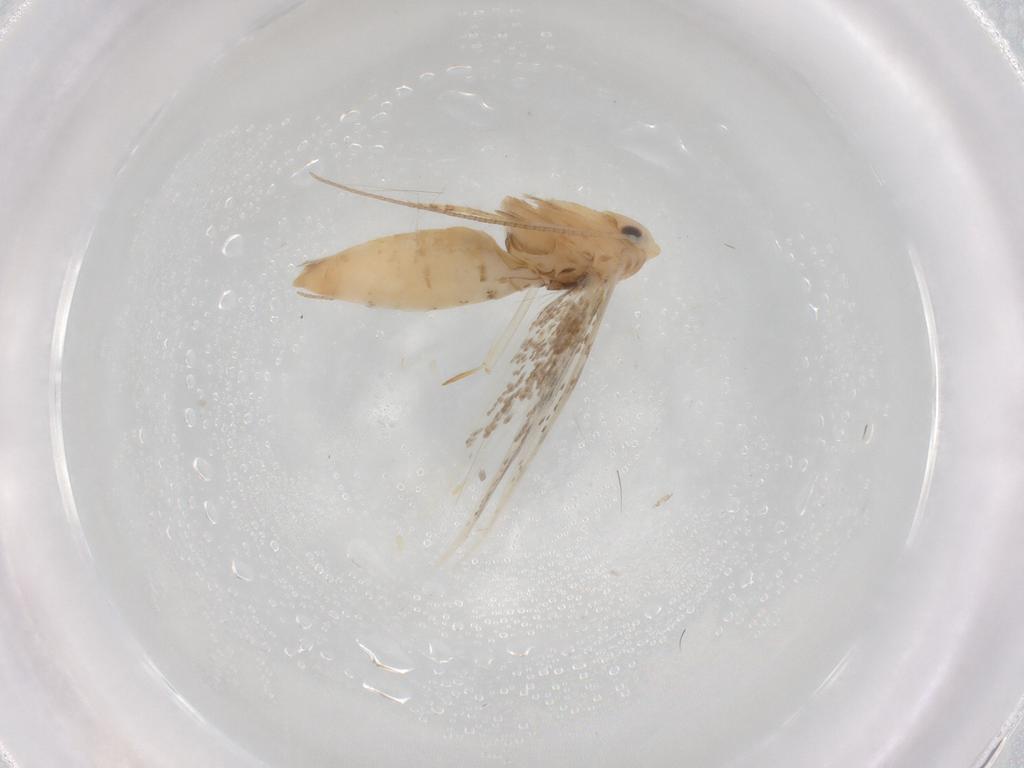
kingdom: Animalia
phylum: Arthropoda
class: Insecta
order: Lepidoptera
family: Bucculatricidae
